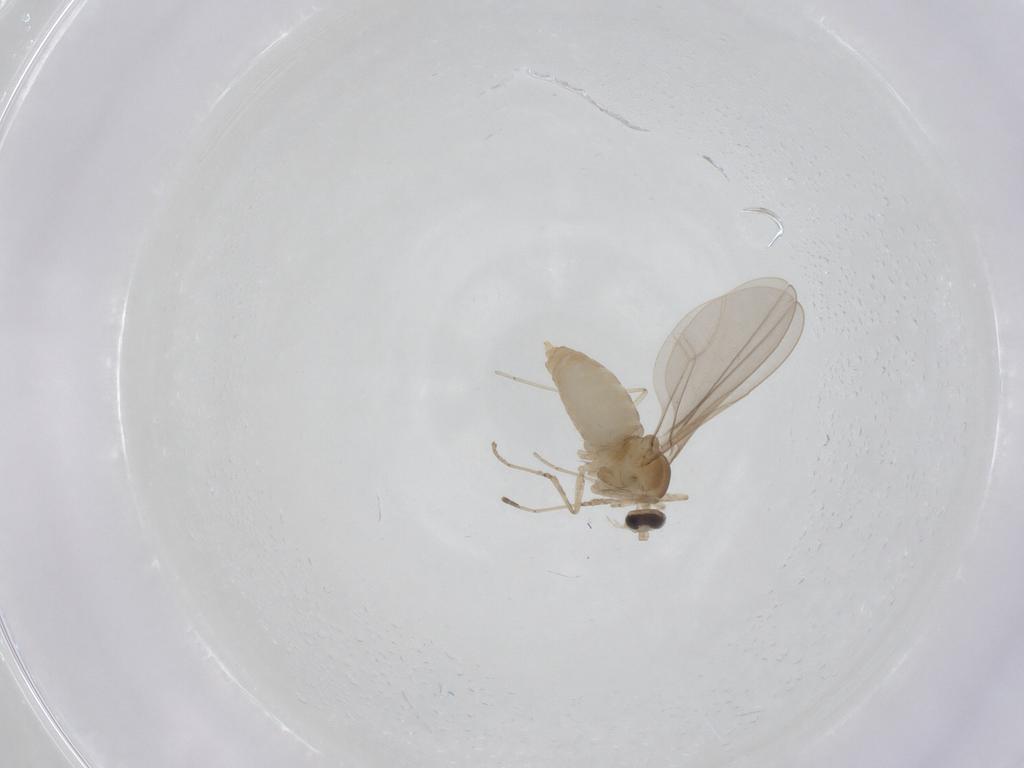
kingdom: Animalia
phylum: Arthropoda
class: Insecta
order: Diptera
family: Cecidomyiidae
